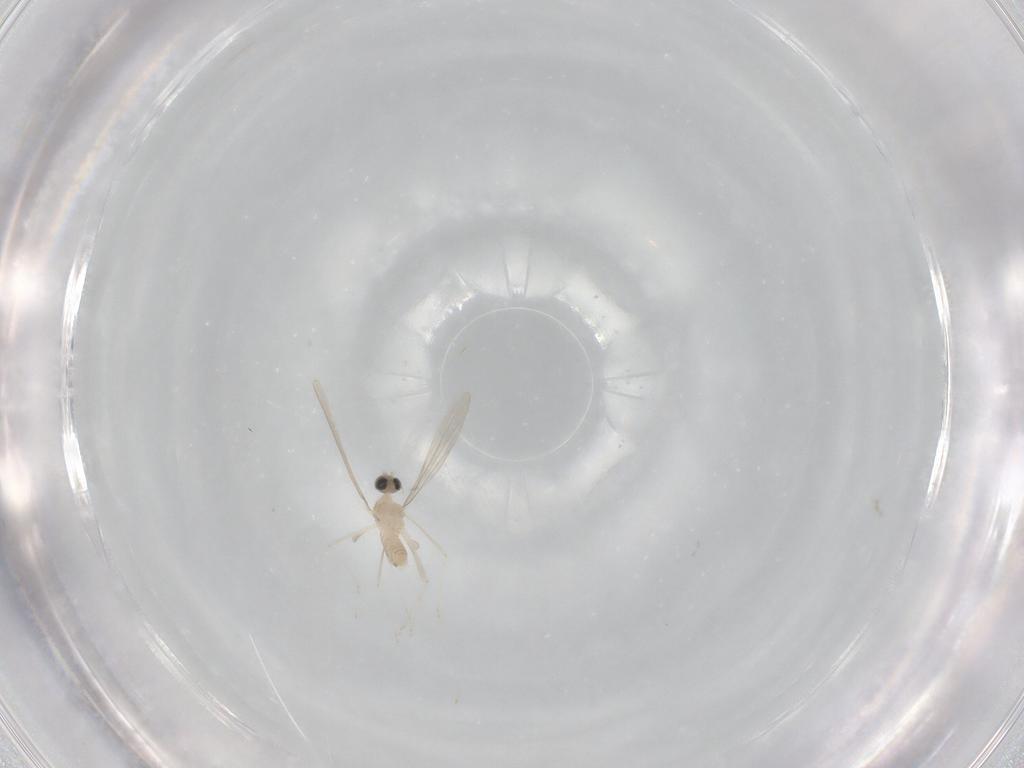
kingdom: Animalia
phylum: Arthropoda
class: Insecta
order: Diptera
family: Cecidomyiidae
